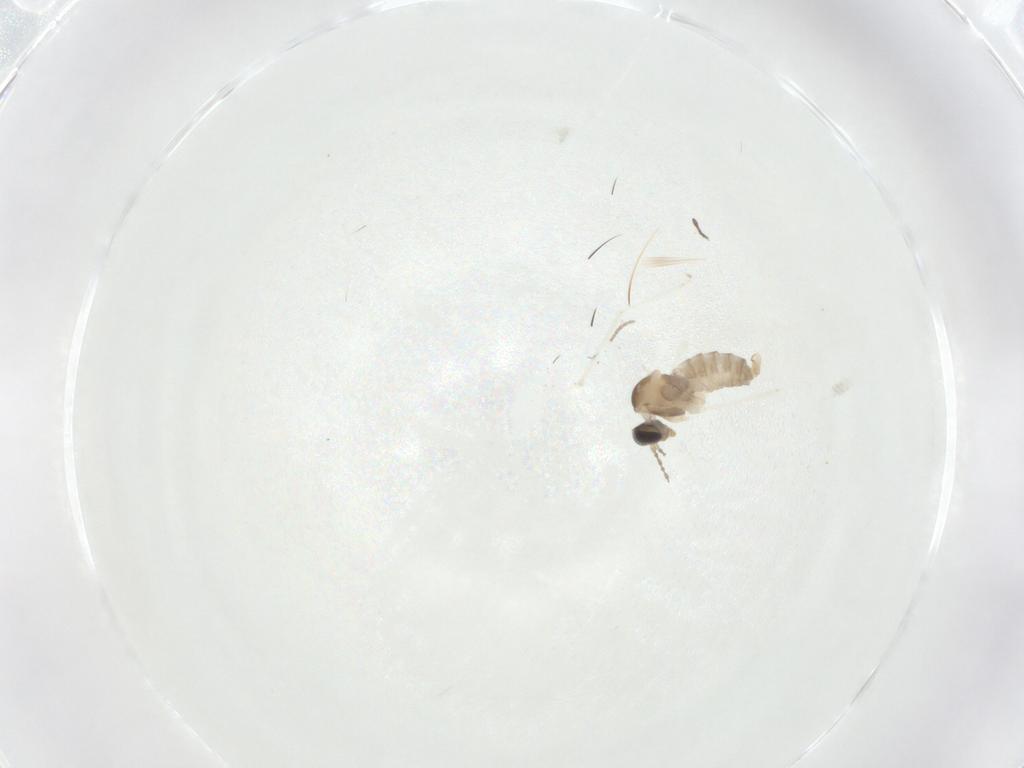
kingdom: Animalia
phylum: Arthropoda
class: Insecta
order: Diptera
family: Cecidomyiidae
